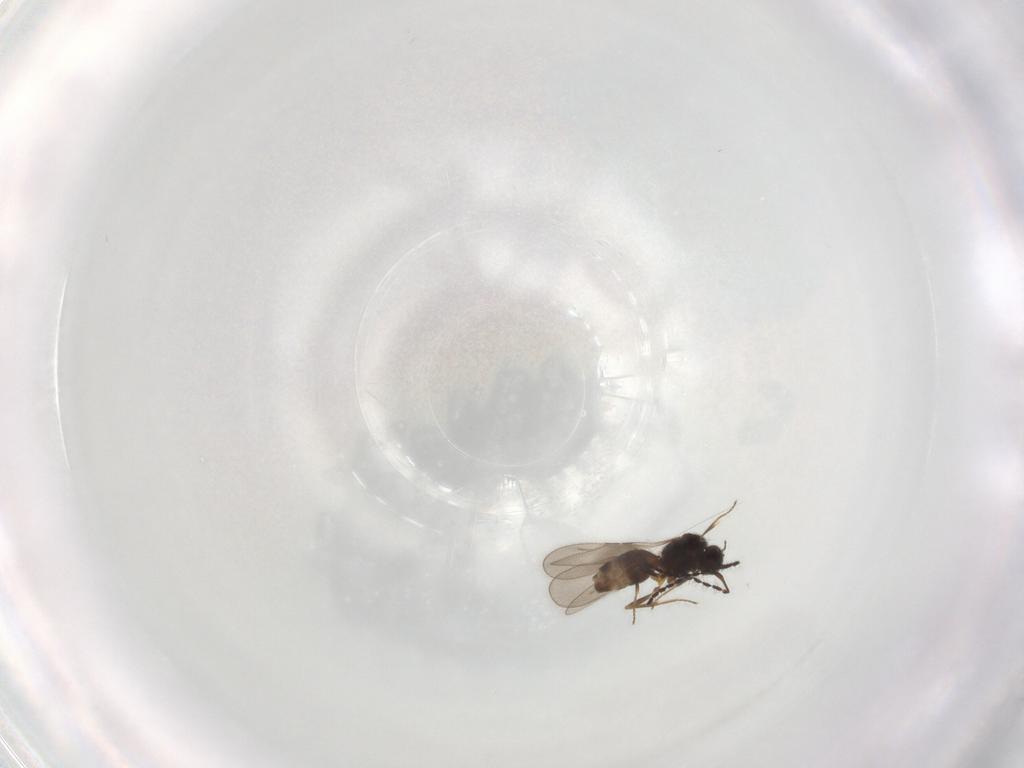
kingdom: Animalia
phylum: Arthropoda
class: Insecta
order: Hymenoptera
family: Ceraphronidae
